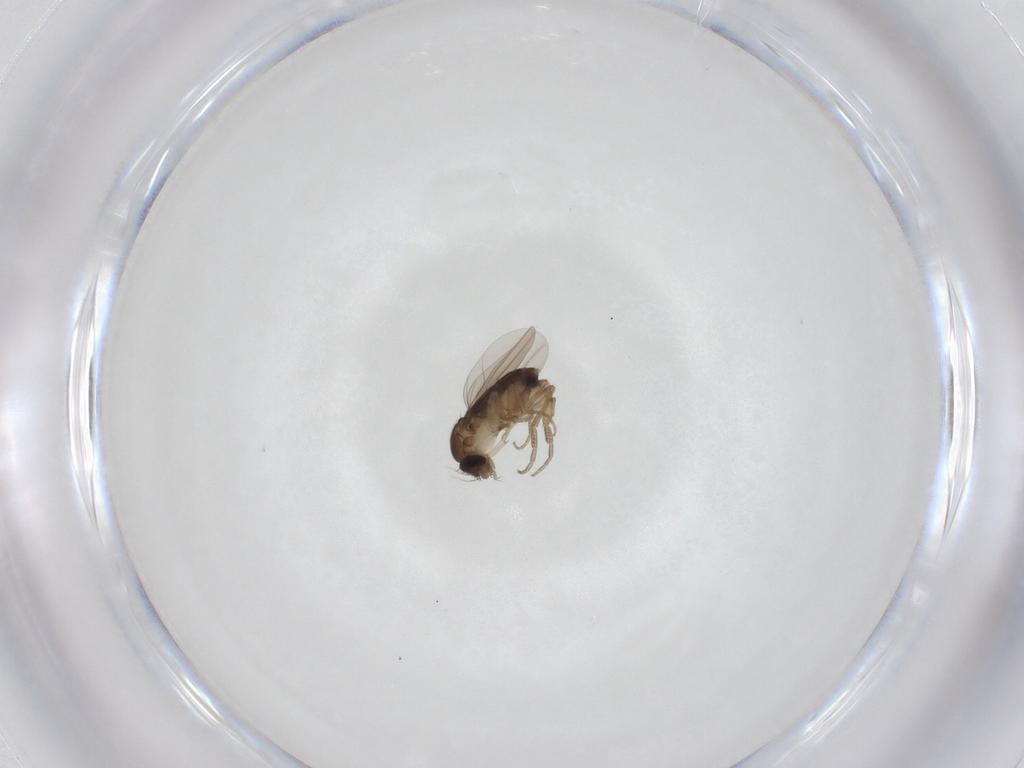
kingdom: Animalia
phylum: Arthropoda
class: Insecta
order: Diptera
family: Phoridae
